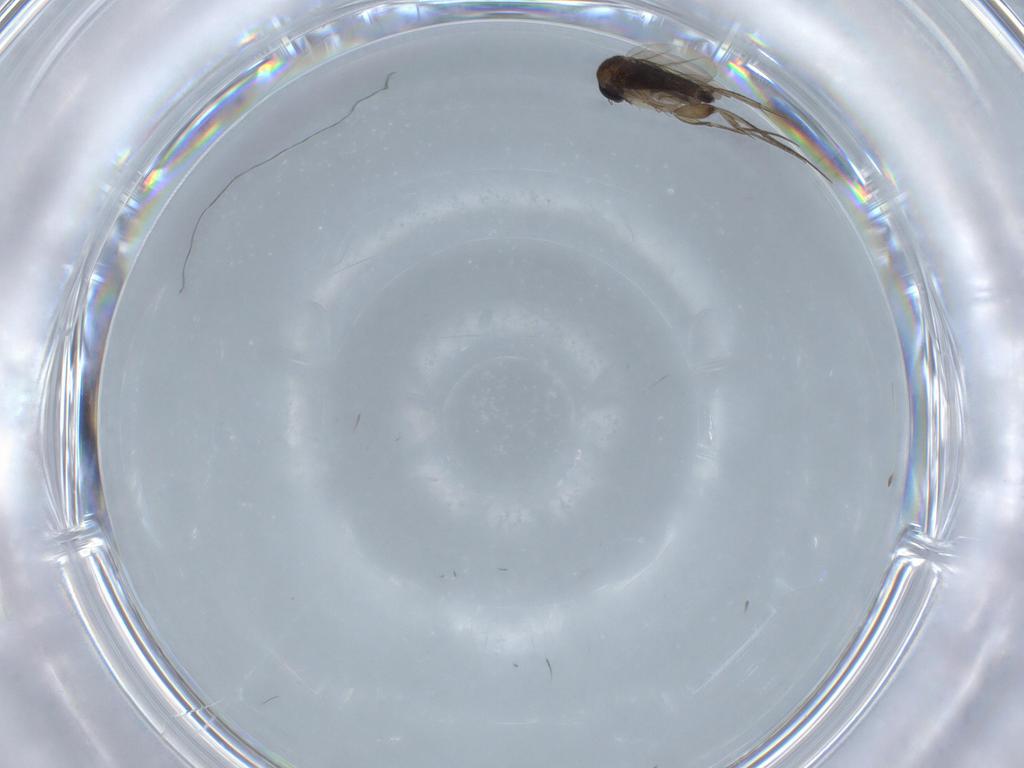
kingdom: Animalia
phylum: Arthropoda
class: Insecta
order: Diptera
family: Phoridae
